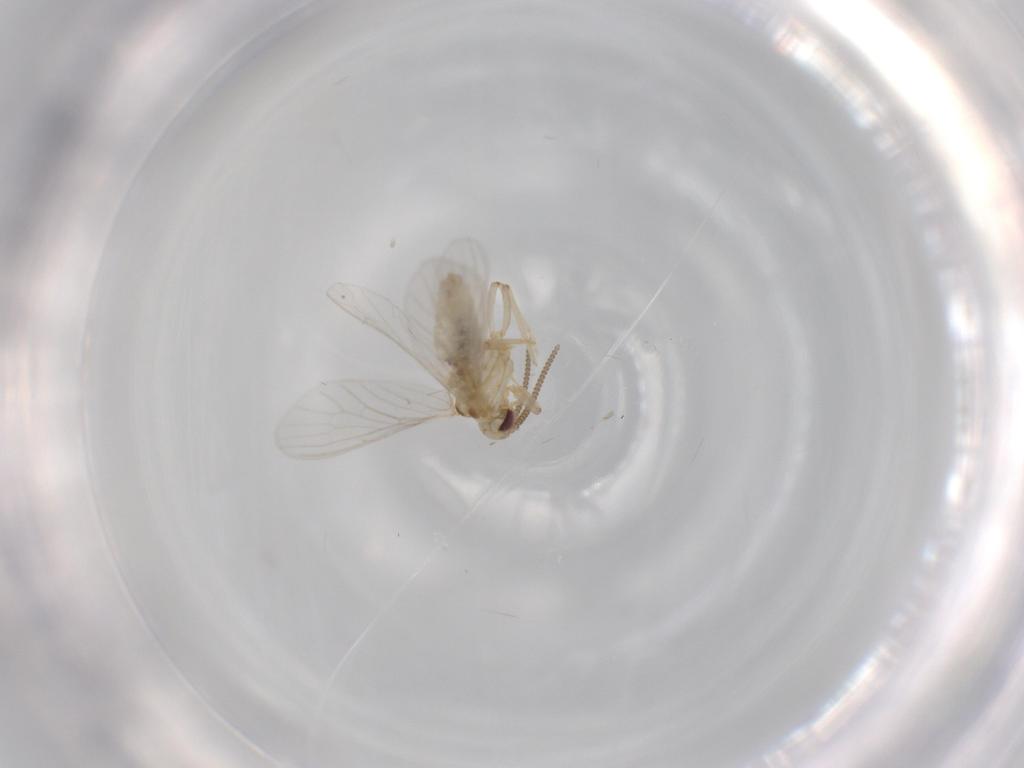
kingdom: Animalia
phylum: Arthropoda
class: Insecta
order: Neuroptera
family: Coniopterygidae
